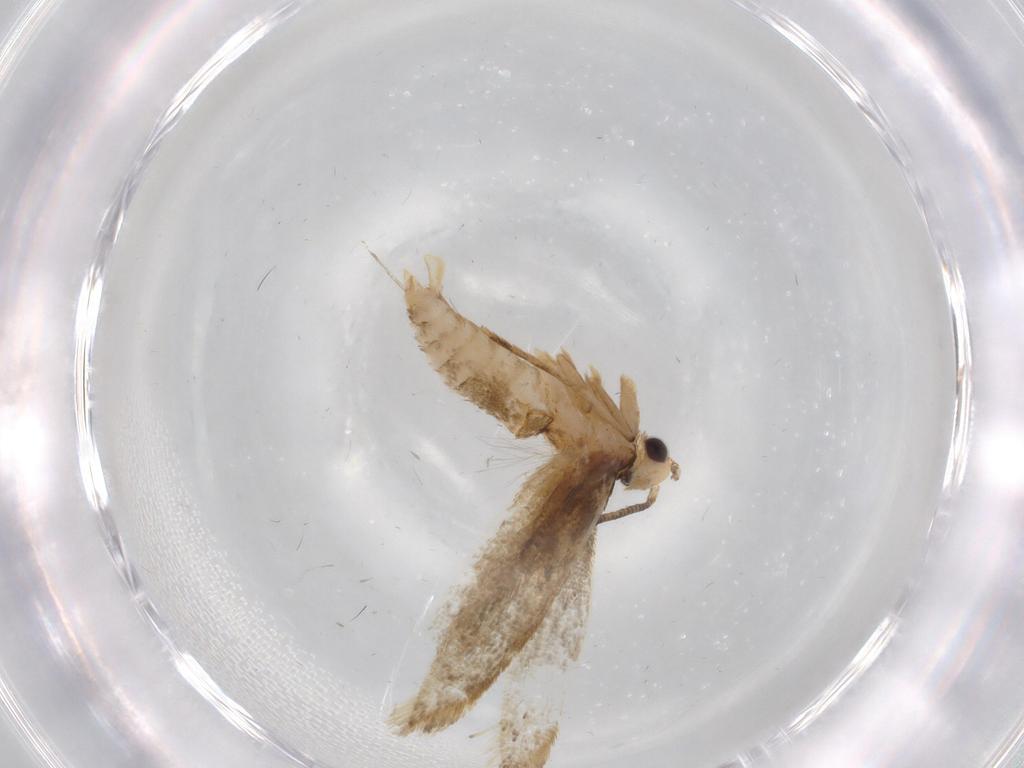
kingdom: Animalia
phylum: Arthropoda
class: Insecta
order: Lepidoptera
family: Tineidae
